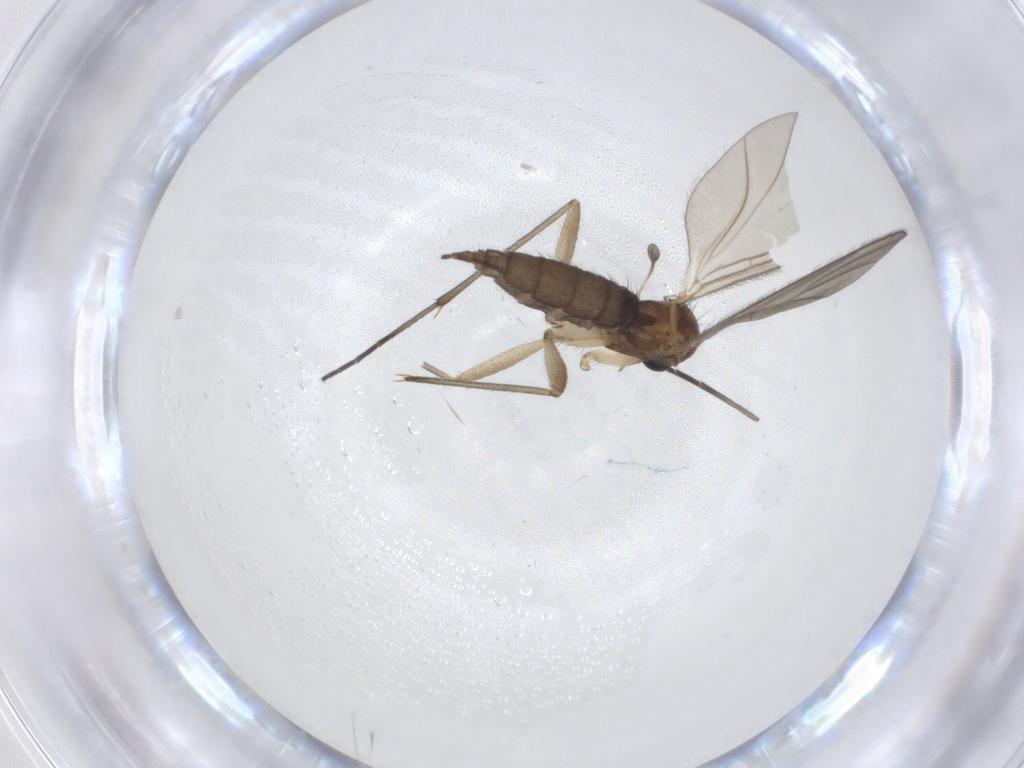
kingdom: Animalia
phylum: Arthropoda
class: Insecta
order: Diptera
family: Sciaridae
